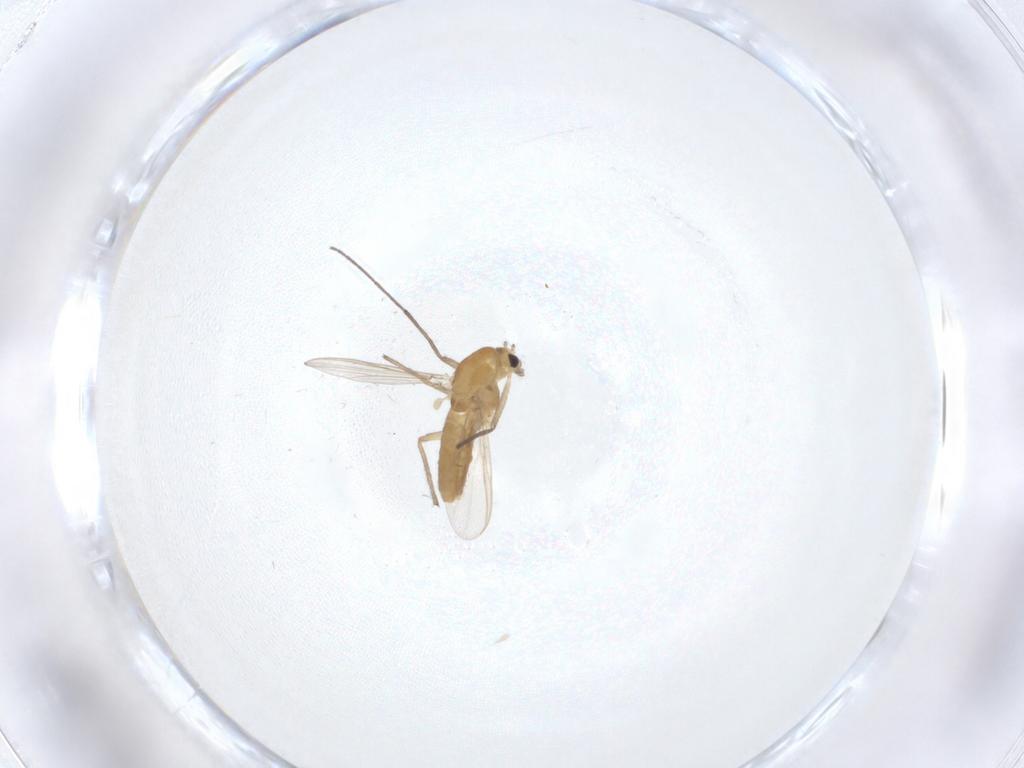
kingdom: Animalia
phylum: Arthropoda
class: Insecta
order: Diptera
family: Chironomidae
